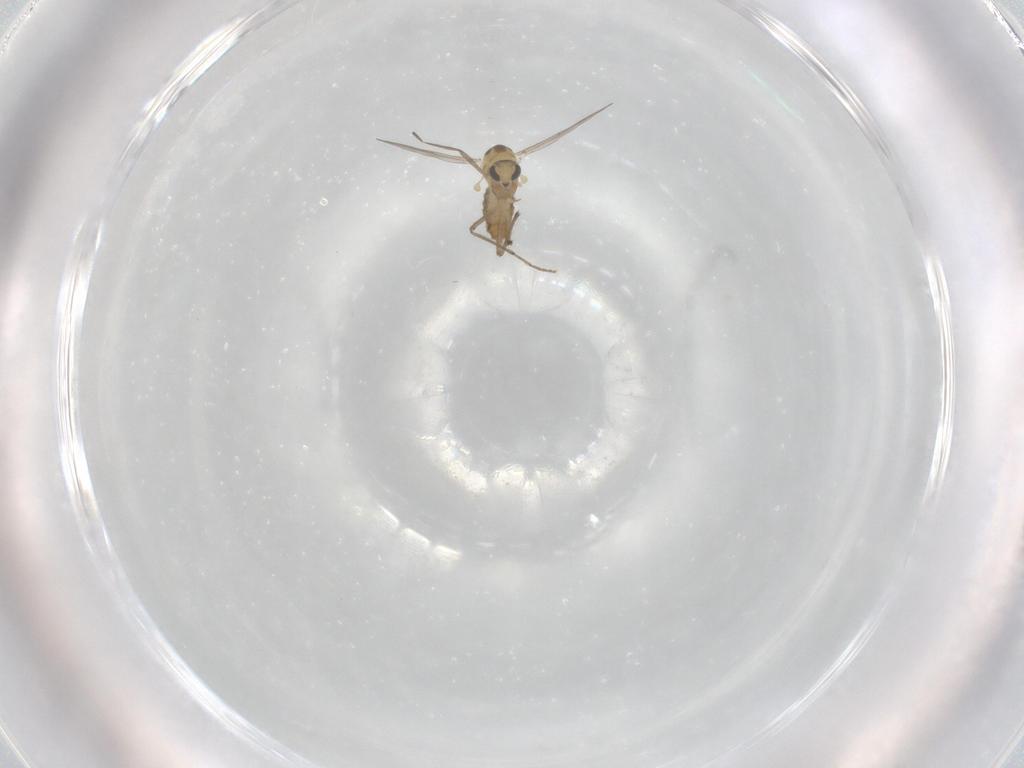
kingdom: Animalia
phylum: Arthropoda
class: Insecta
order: Diptera
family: Chironomidae
